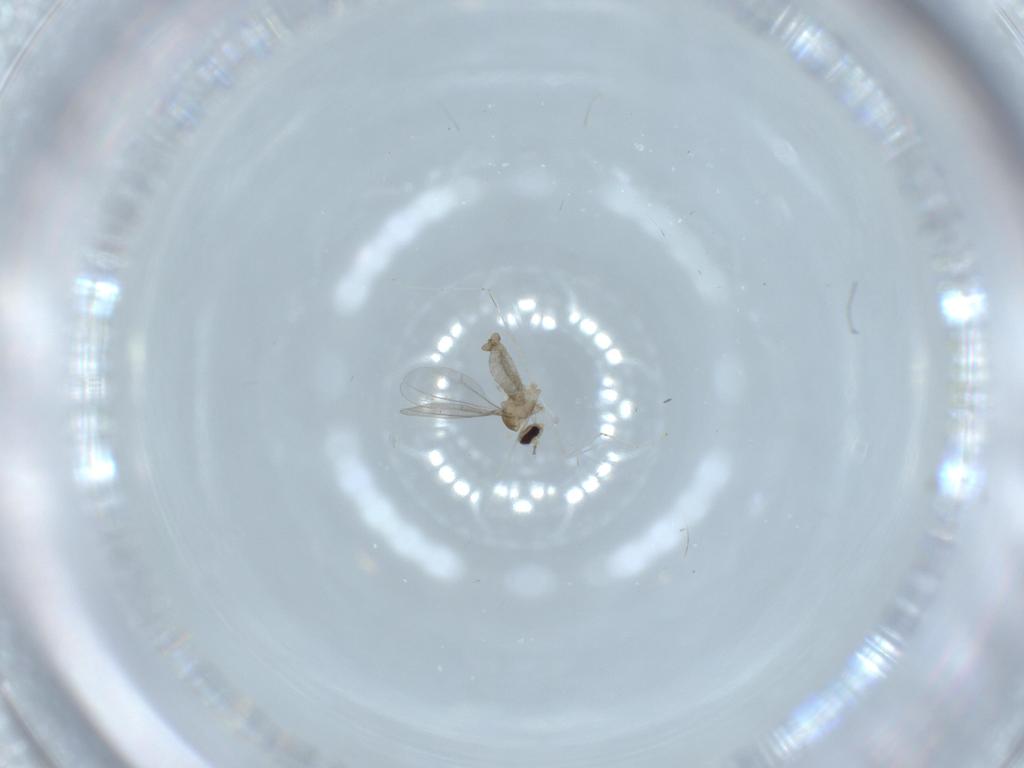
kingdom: Animalia
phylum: Arthropoda
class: Insecta
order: Diptera
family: Cecidomyiidae
